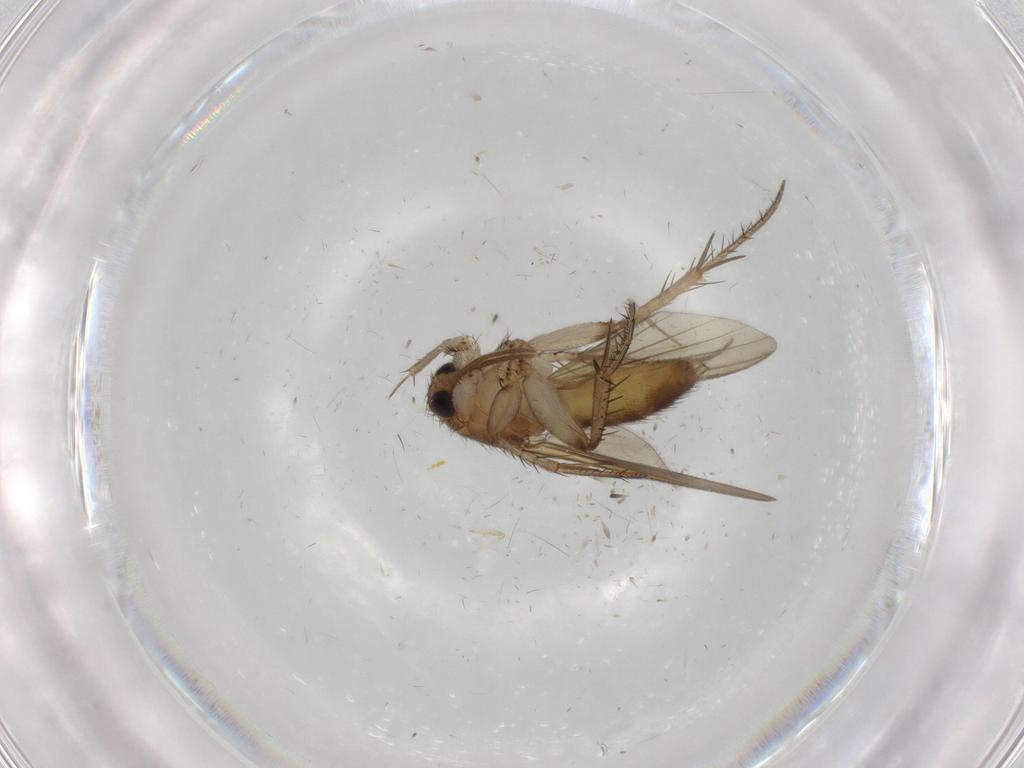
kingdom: Animalia
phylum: Arthropoda
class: Insecta
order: Diptera
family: Mycetophilidae
